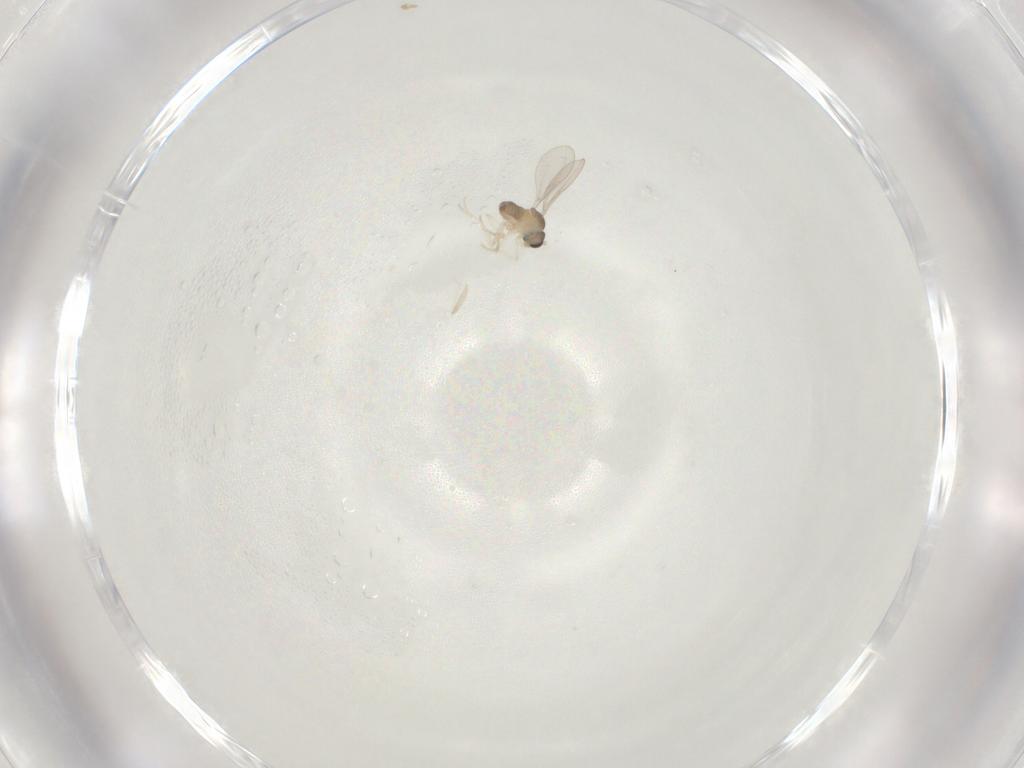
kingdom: Animalia
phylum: Arthropoda
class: Insecta
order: Diptera
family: Cecidomyiidae
